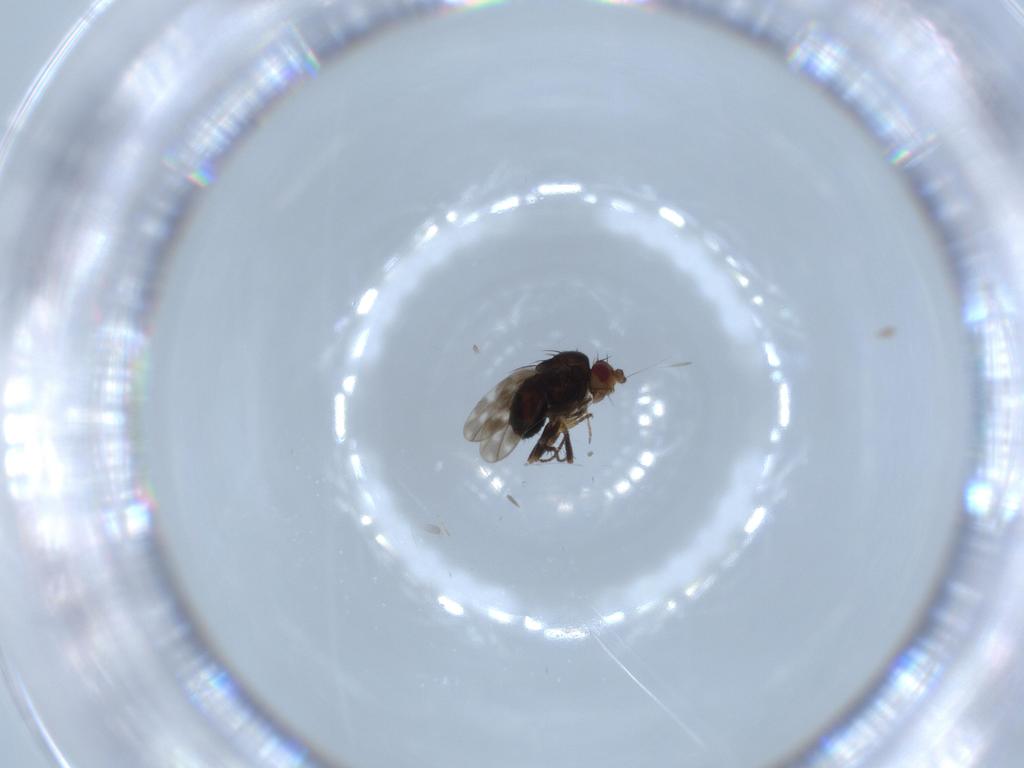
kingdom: Animalia
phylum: Arthropoda
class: Insecta
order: Diptera
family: Sphaeroceridae
